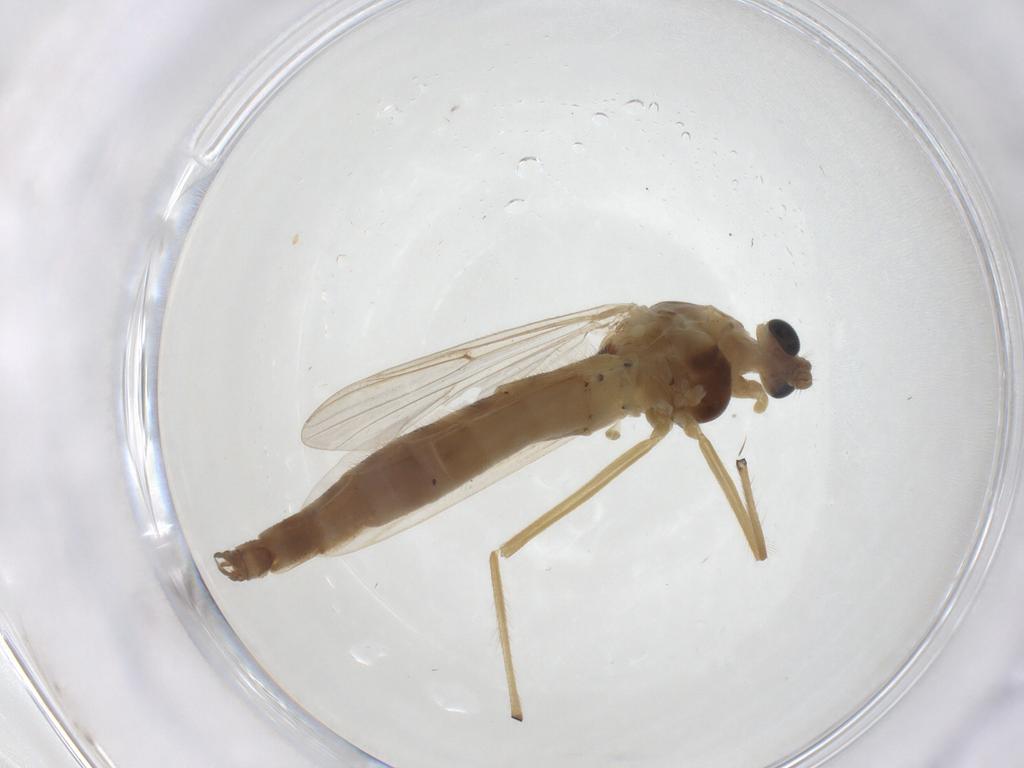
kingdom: Animalia
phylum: Arthropoda
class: Insecta
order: Diptera
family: Chironomidae
